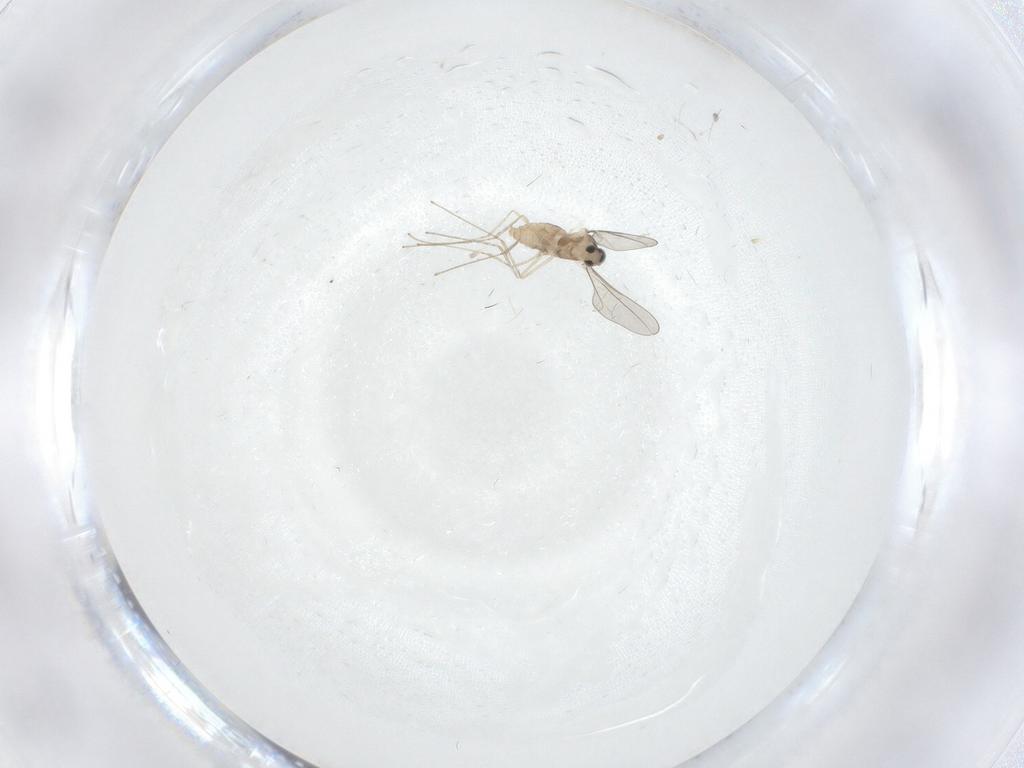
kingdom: Animalia
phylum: Arthropoda
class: Insecta
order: Diptera
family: Cecidomyiidae
